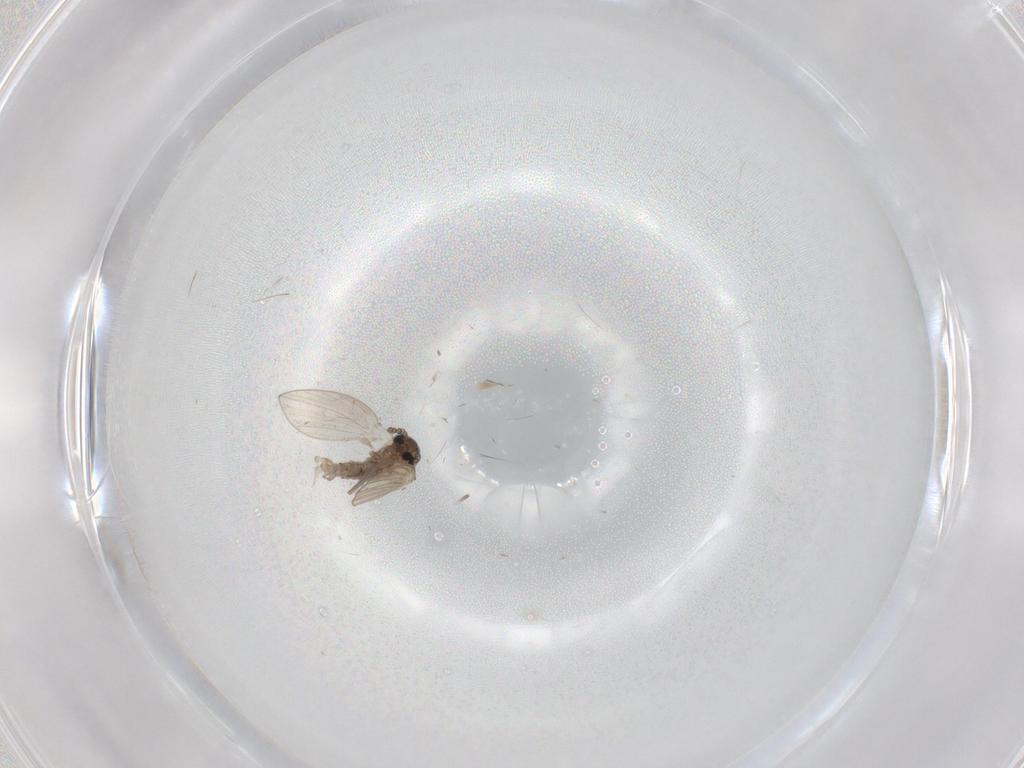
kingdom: Animalia
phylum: Arthropoda
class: Insecta
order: Diptera
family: Psychodidae
